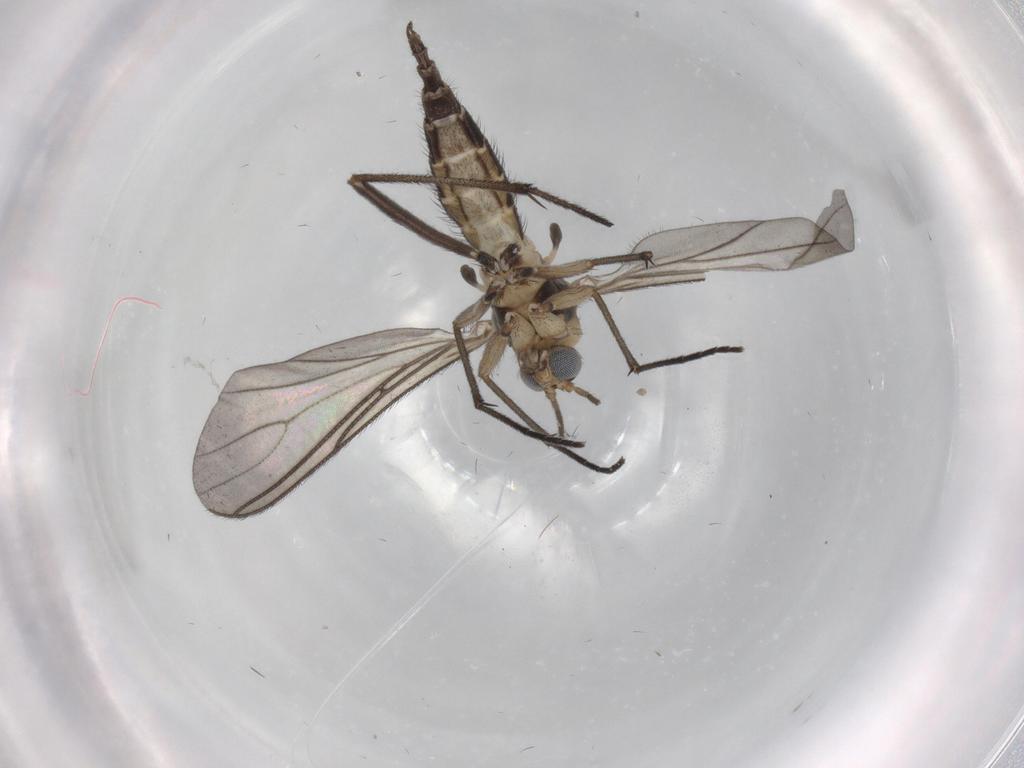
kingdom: Animalia
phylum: Arthropoda
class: Insecta
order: Diptera
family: Sciaridae
